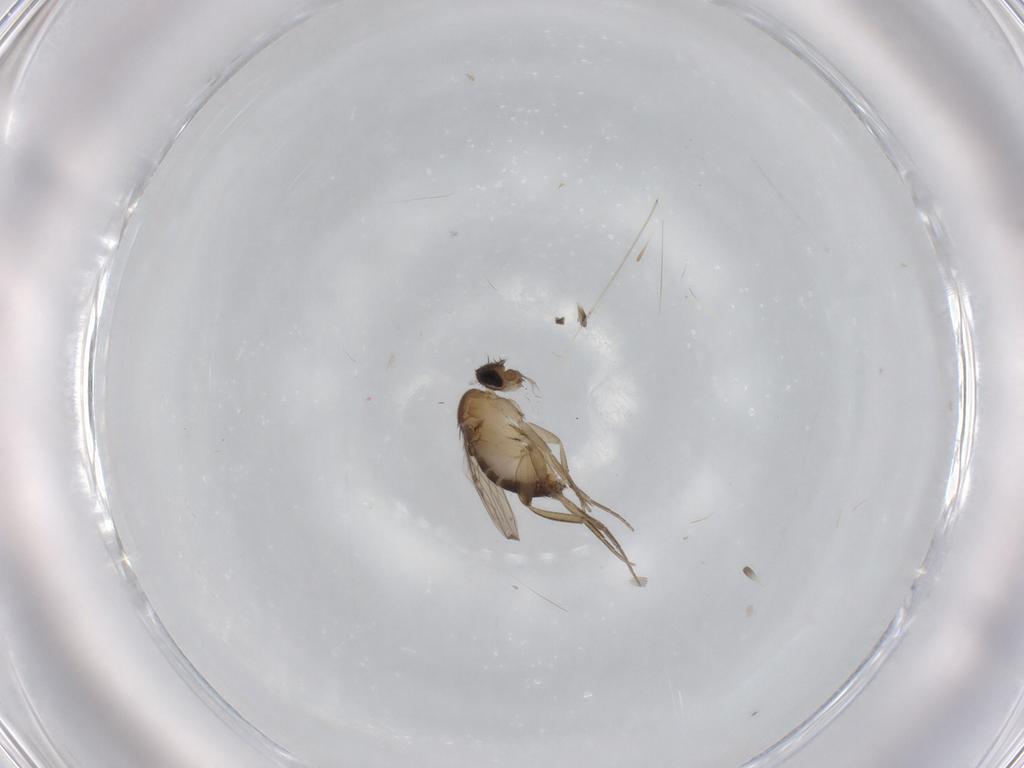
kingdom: Animalia
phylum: Arthropoda
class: Insecta
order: Diptera
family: Phoridae
